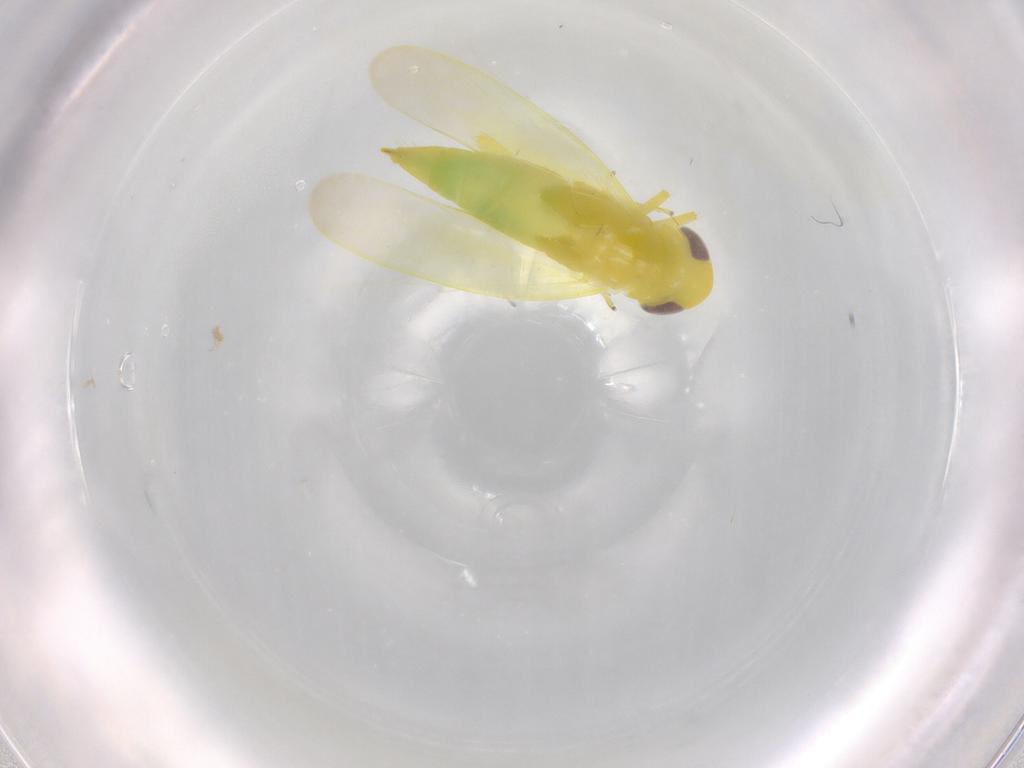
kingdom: Animalia
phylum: Arthropoda
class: Insecta
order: Hemiptera
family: Cicadellidae
